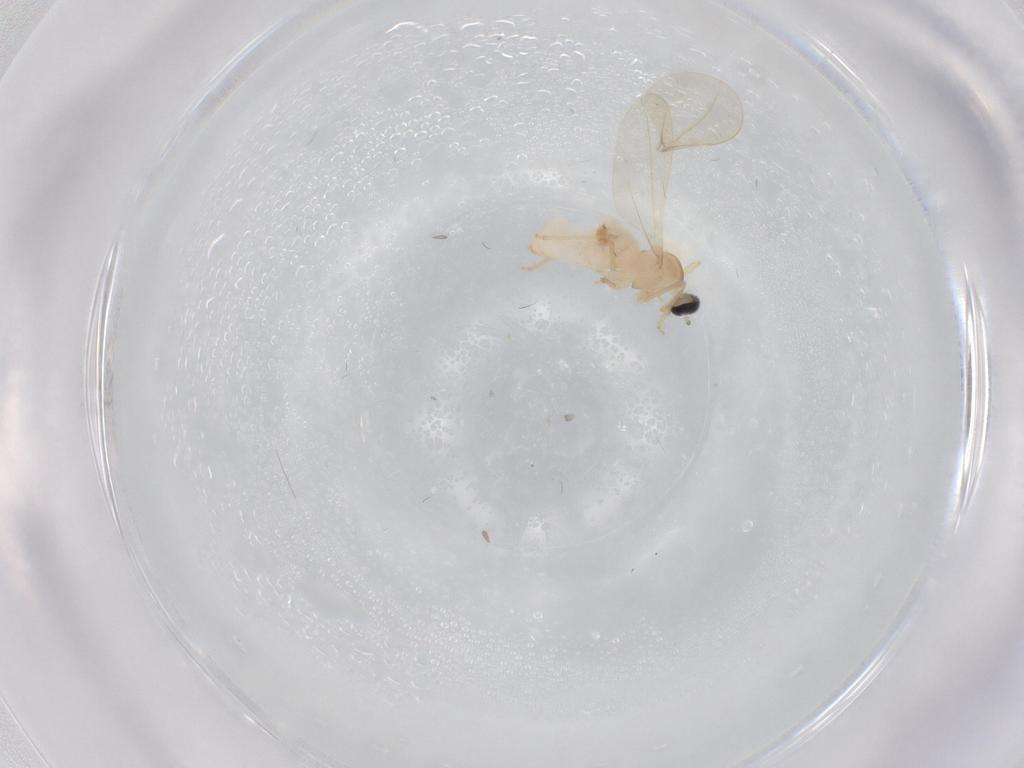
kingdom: Animalia
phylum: Arthropoda
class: Insecta
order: Diptera
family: Cecidomyiidae
